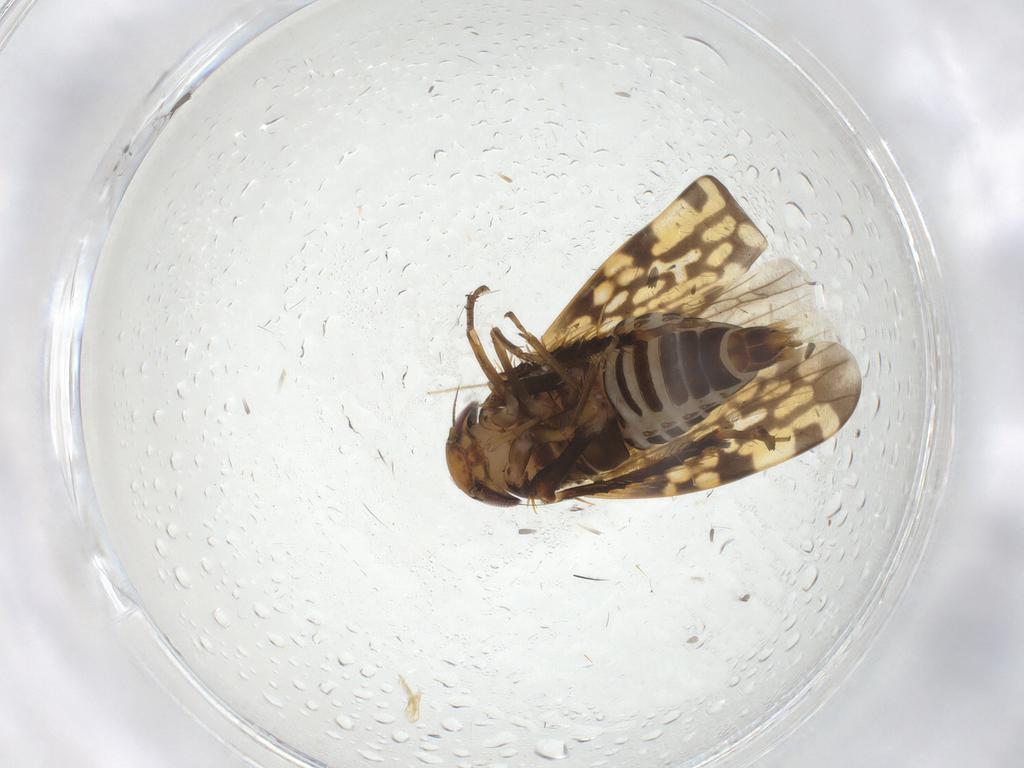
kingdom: Animalia
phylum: Arthropoda
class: Insecta
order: Hemiptera
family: Cicadellidae
